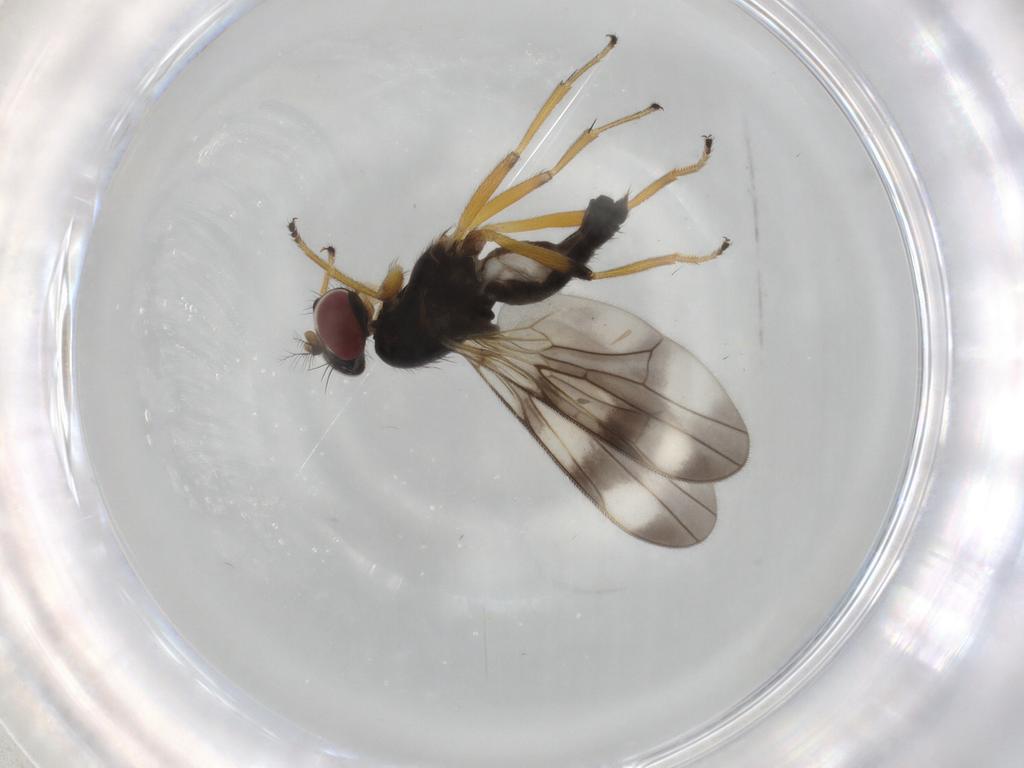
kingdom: Animalia
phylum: Arthropoda
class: Insecta
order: Diptera
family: Periscelididae
